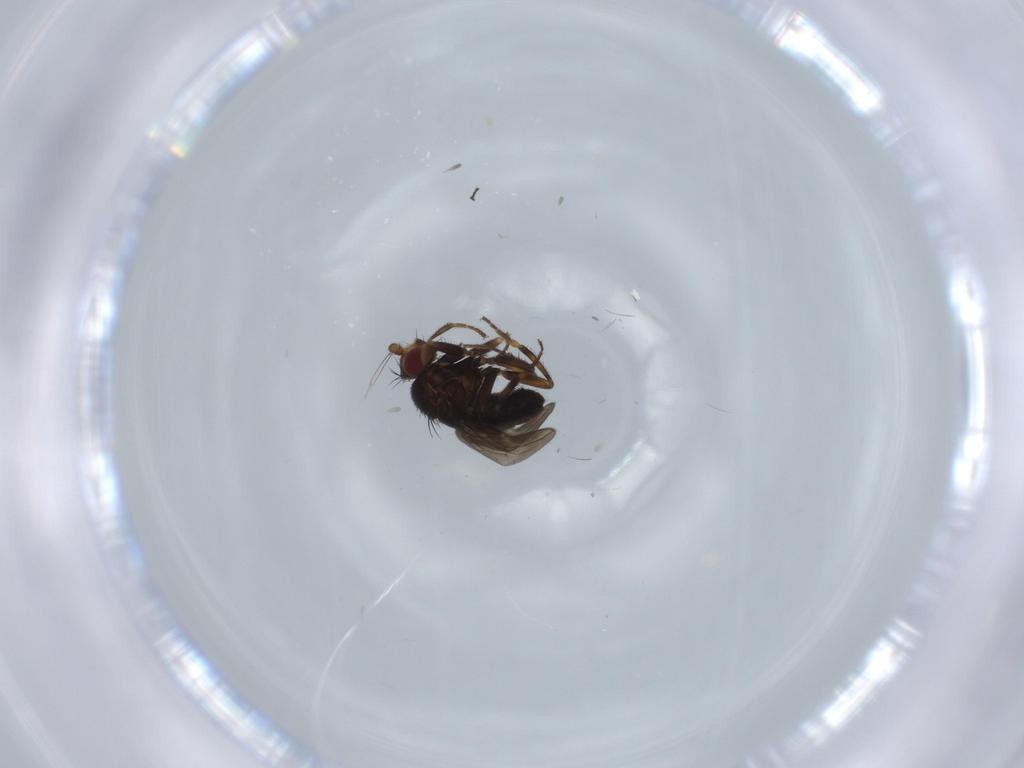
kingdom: Animalia
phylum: Arthropoda
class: Insecta
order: Diptera
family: Sphaeroceridae
